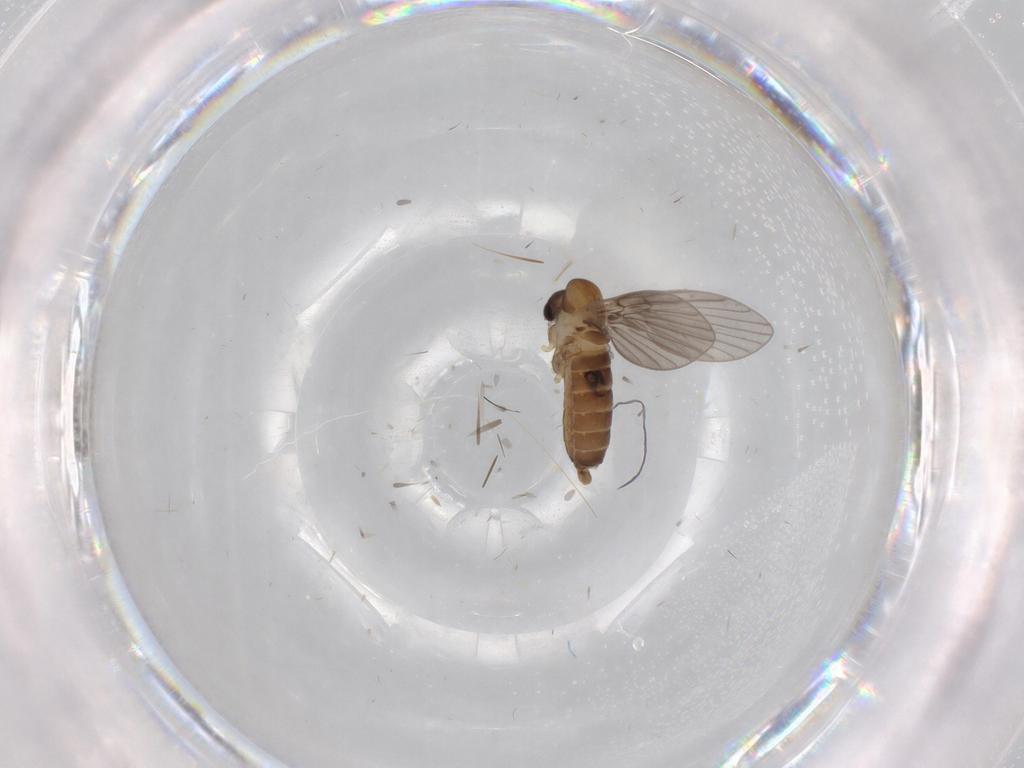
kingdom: Animalia
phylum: Arthropoda
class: Insecta
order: Diptera
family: Sciaridae
